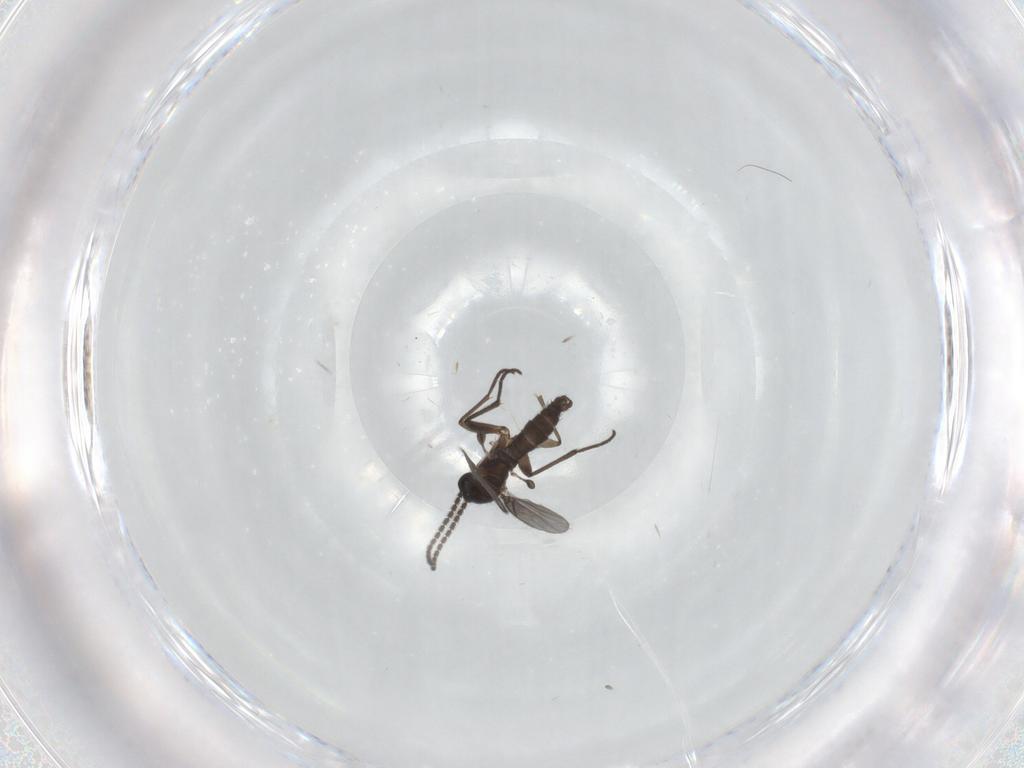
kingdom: Animalia
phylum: Arthropoda
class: Insecta
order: Diptera
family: Sciaridae
